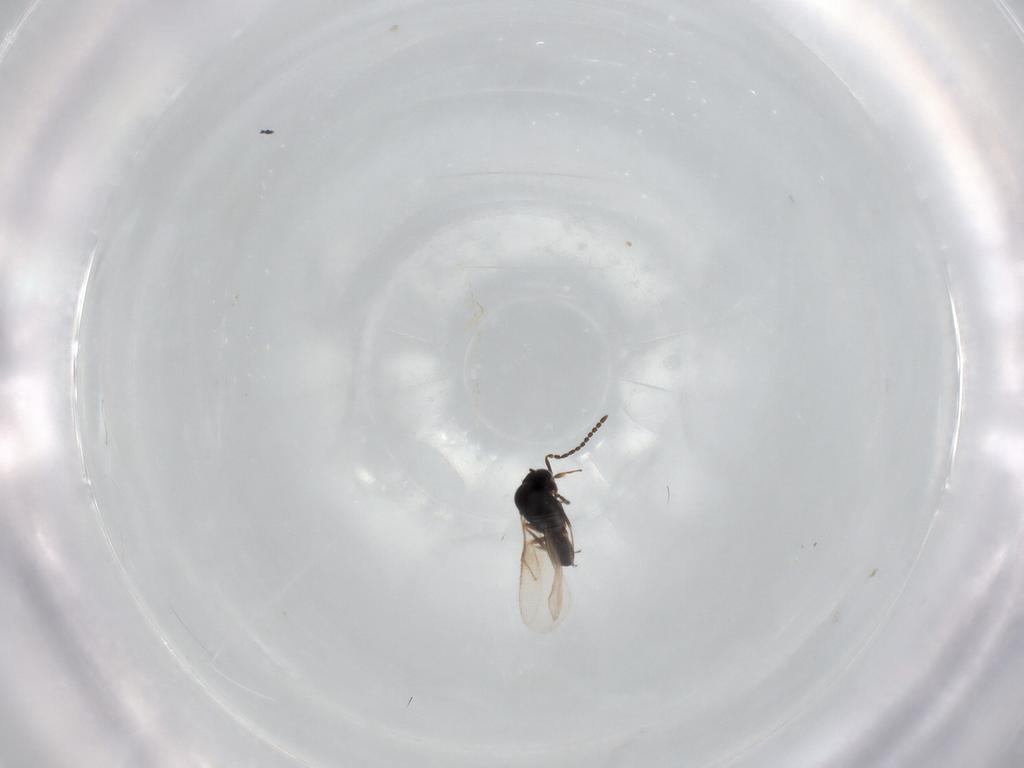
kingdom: Animalia
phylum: Arthropoda
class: Insecta
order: Hymenoptera
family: Scelionidae
